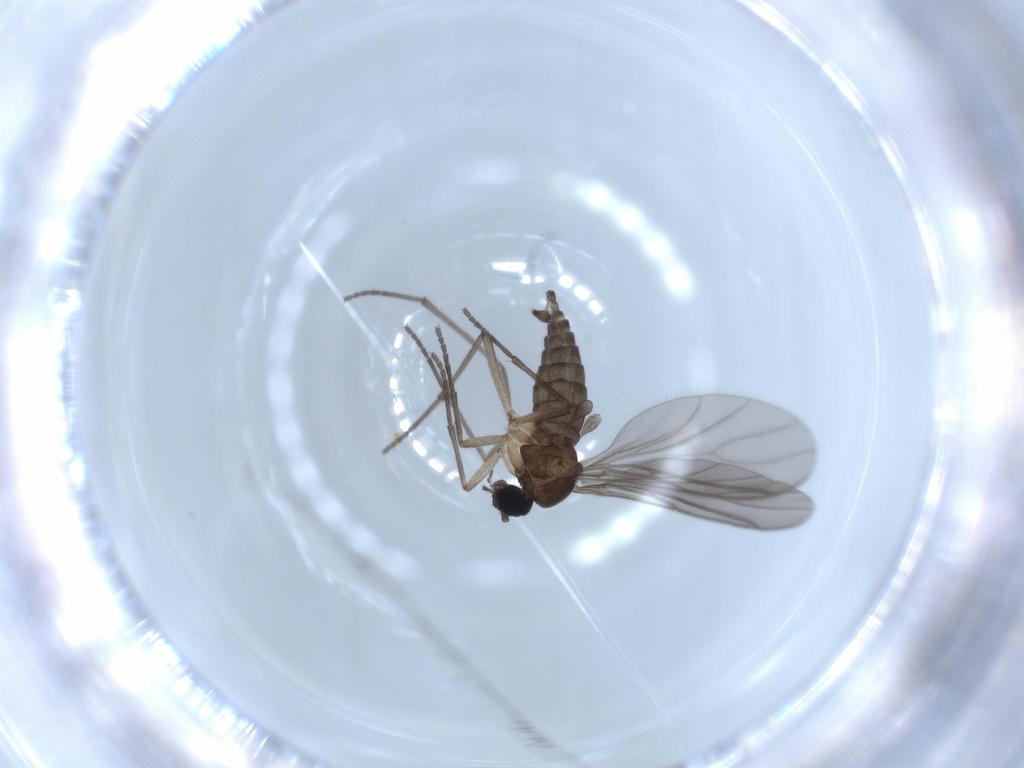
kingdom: Animalia
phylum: Arthropoda
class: Insecta
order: Diptera
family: Sciaridae
